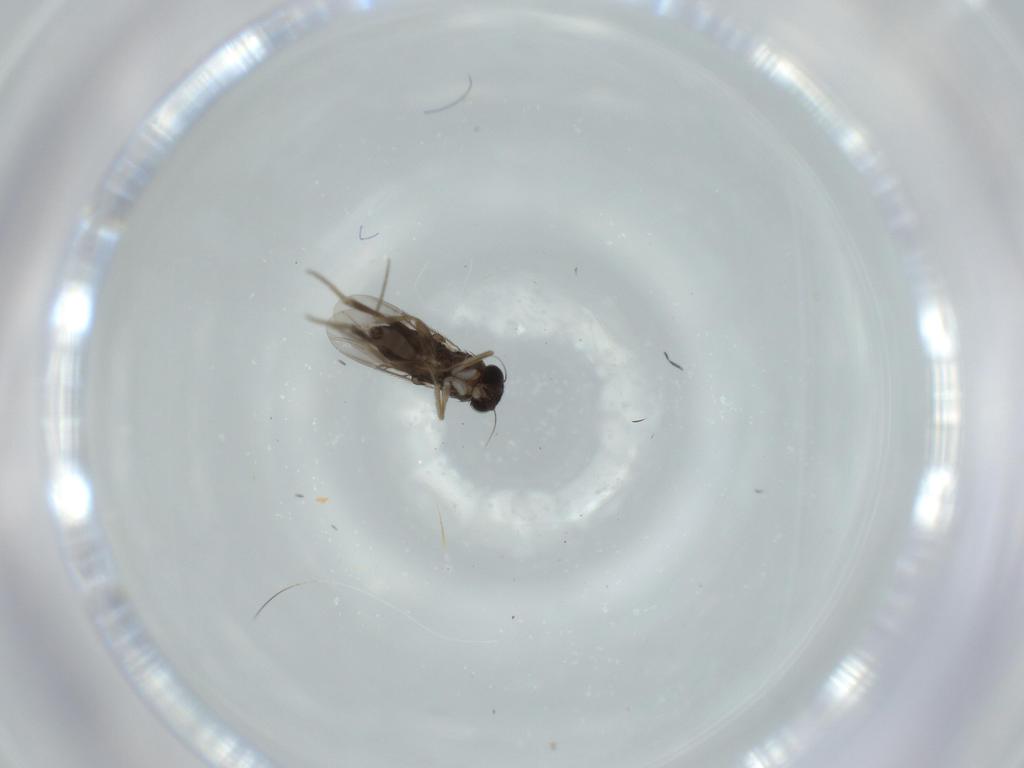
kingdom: Animalia
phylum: Arthropoda
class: Insecta
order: Diptera
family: Phoridae
